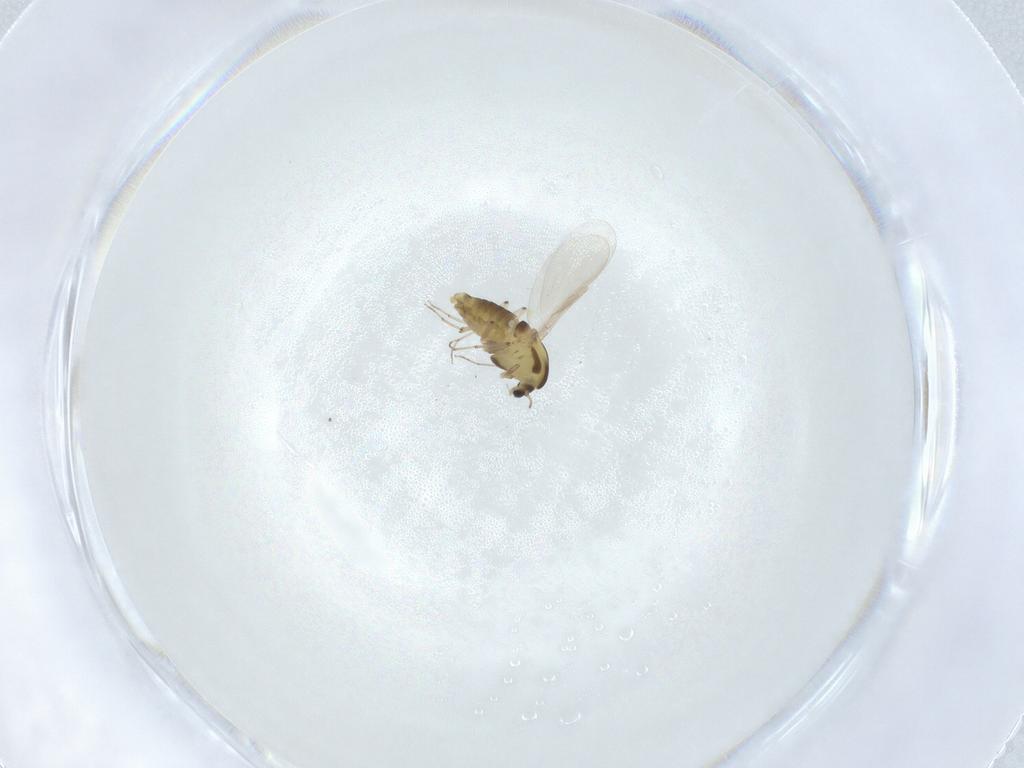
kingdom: Animalia
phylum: Arthropoda
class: Insecta
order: Diptera
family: Chironomidae
